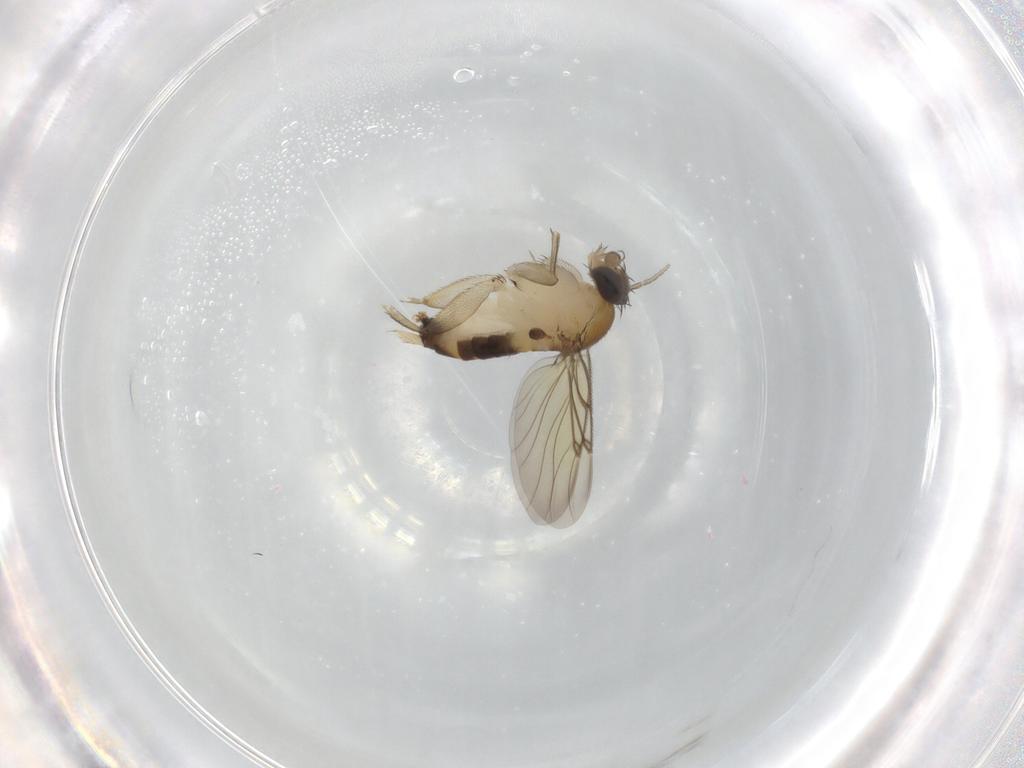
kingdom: Animalia
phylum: Arthropoda
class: Insecta
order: Diptera
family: Phoridae
